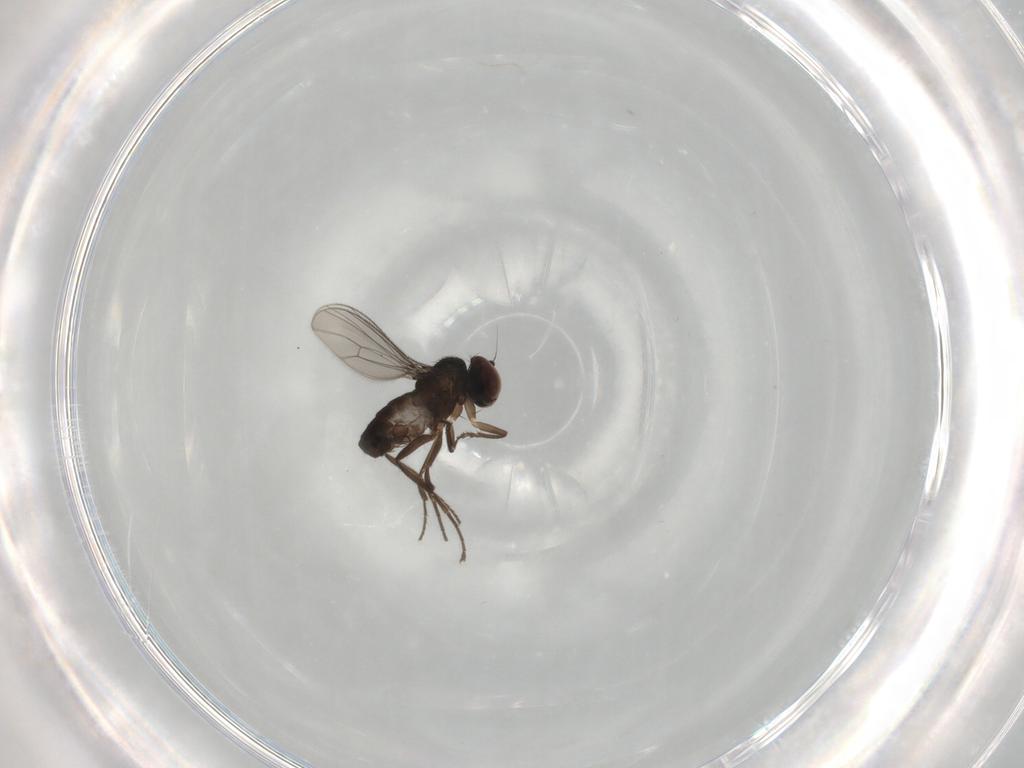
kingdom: Animalia
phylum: Arthropoda
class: Insecta
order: Diptera
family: Dolichopodidae
